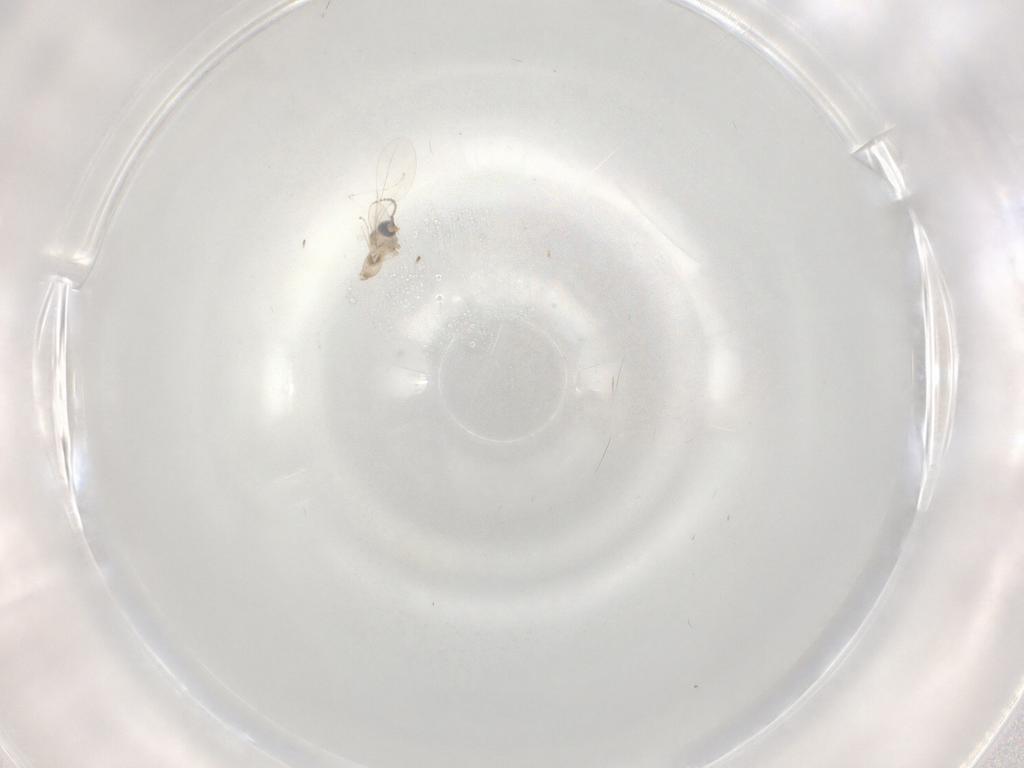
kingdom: Animalia
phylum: Arthropoda
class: Insecta
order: Diptera
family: Cecidomyiidae
